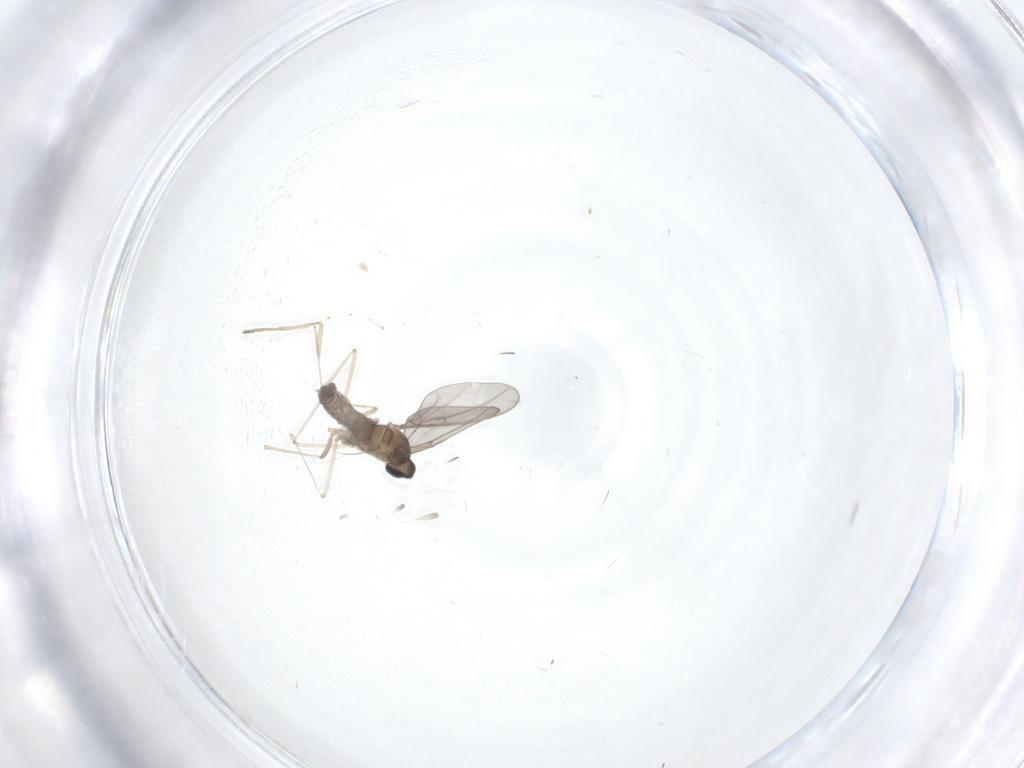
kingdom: Animalia
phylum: Arthropoda
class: Insecta
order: Diptera
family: Cecidomyiidae
